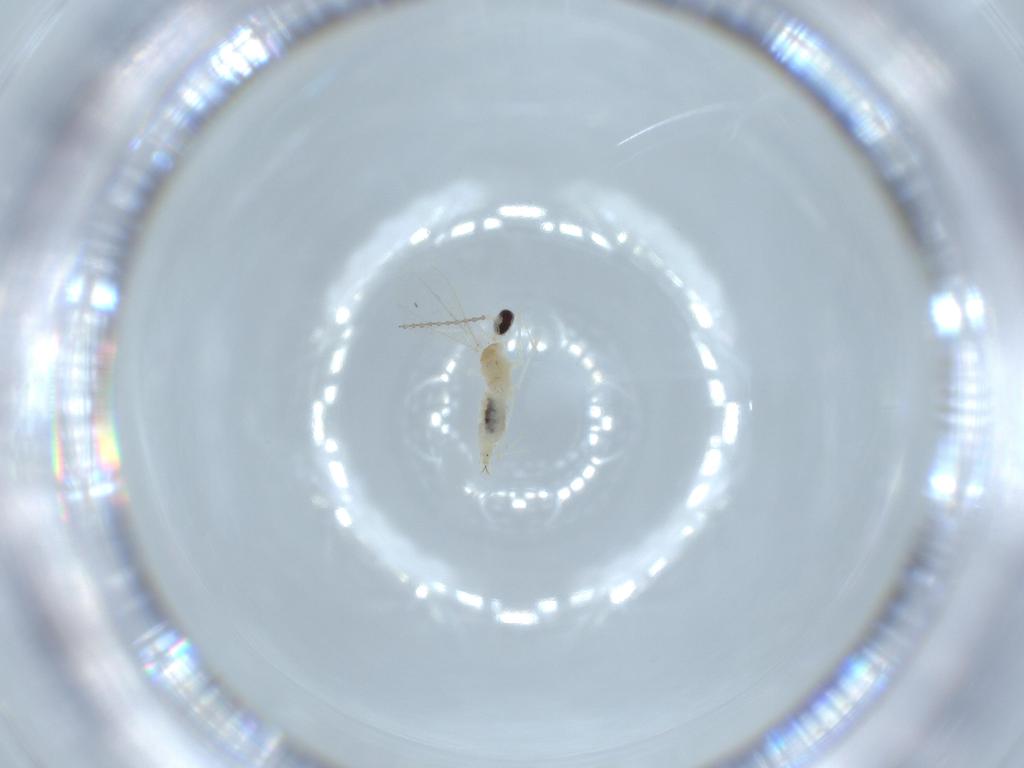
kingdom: Animalia
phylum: Arthropoda
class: Insecta
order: Diptera
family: Cecidomyiidae
